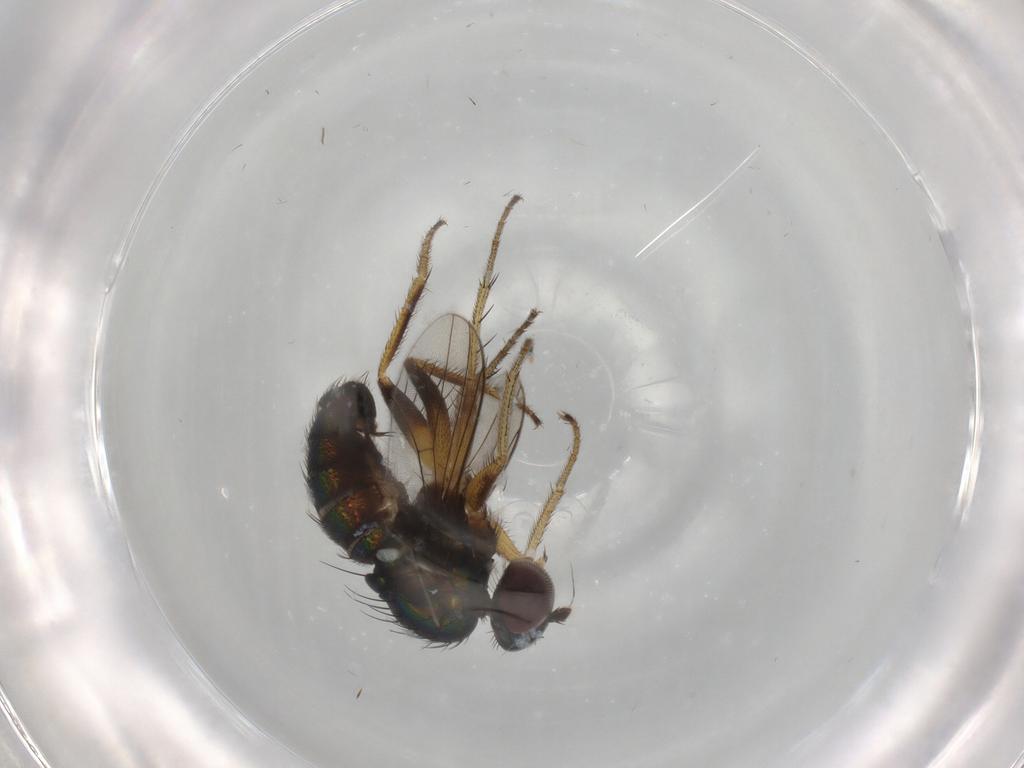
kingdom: Animalia
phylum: Arthropoda
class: Insecta
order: Diptera
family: Dolichopodidae
